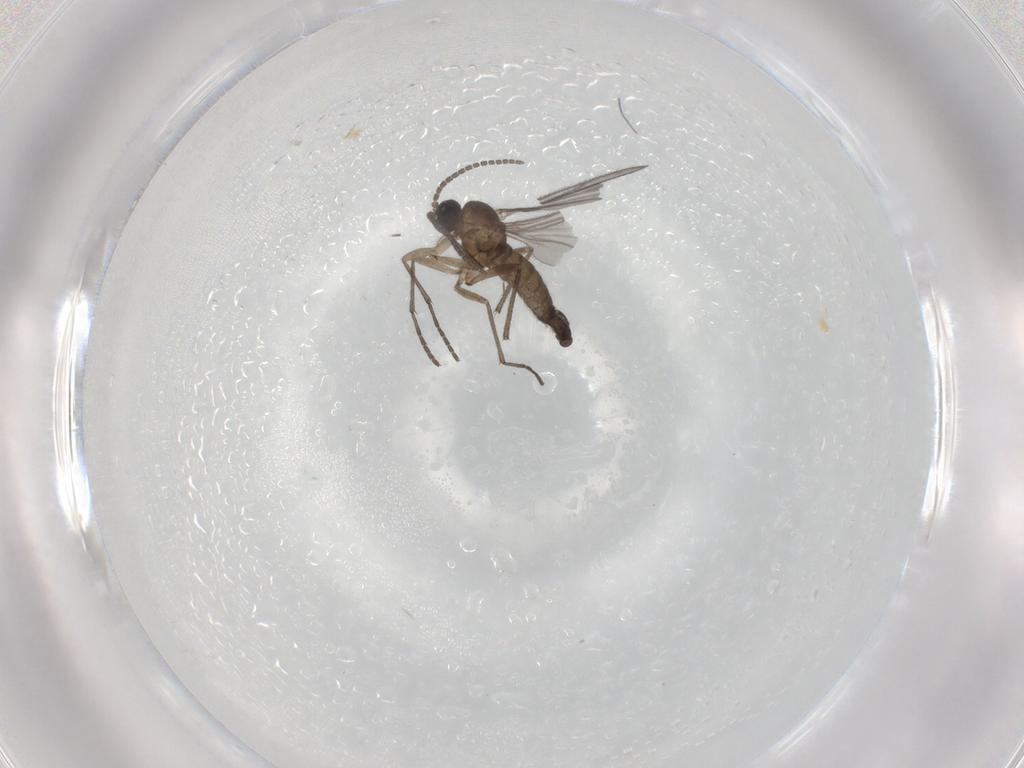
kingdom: Animalia
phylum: Arthropoda
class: Insecta
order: Diptera
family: Sciaridae
